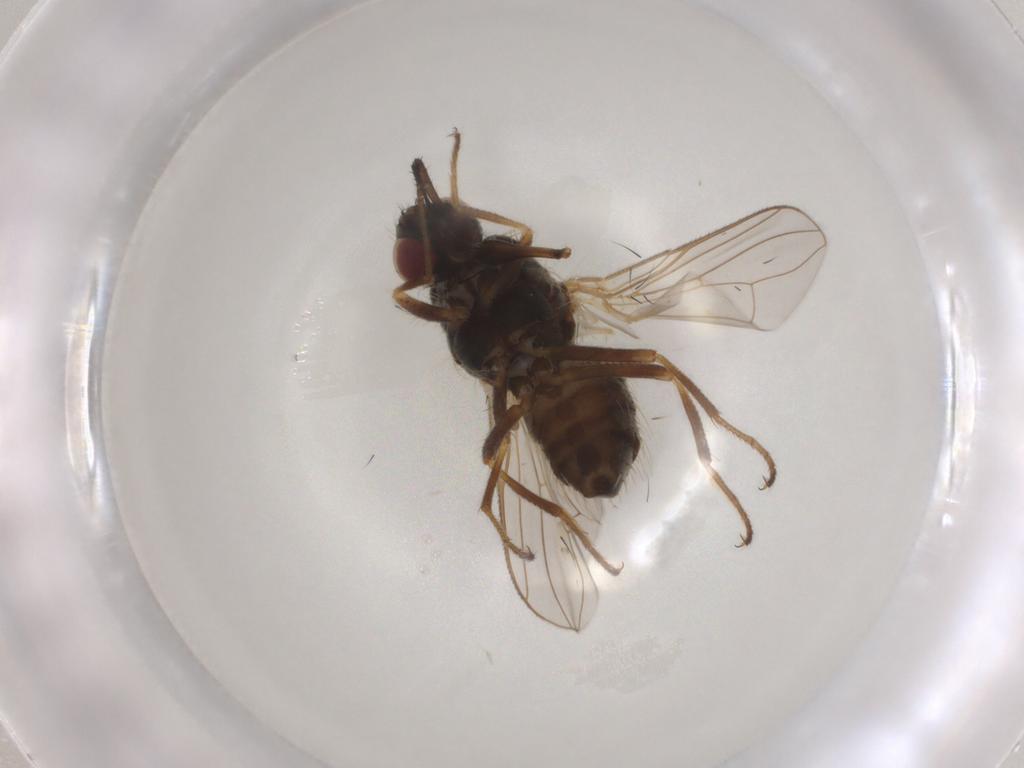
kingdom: Animalia
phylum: Arthropoda
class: Insecta
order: Diptera
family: Muscidae
